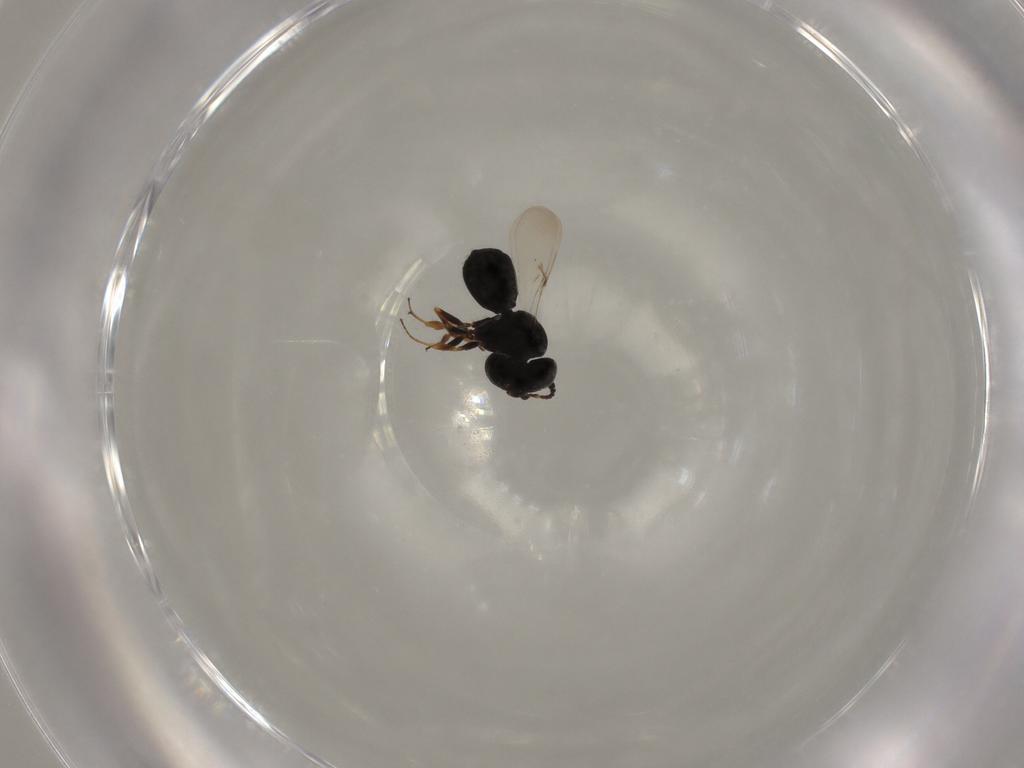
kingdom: Animalia
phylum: Arthropoda
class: Insecta
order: Hymenoptera
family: Scelionidae
